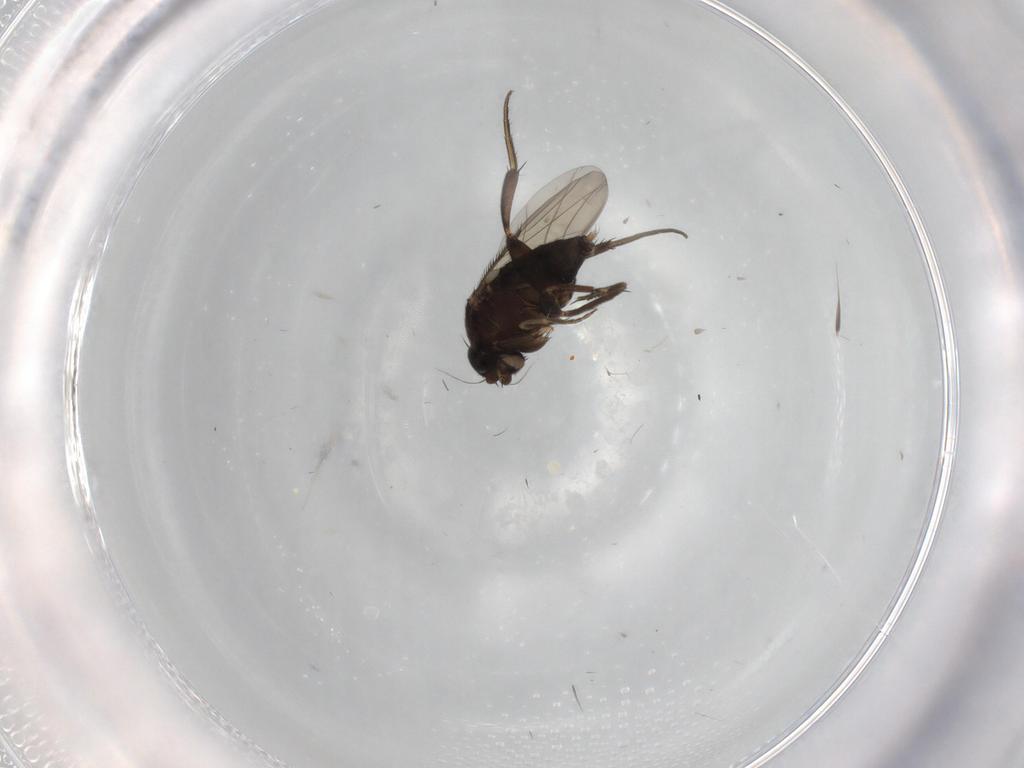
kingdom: Animalia
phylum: Arthropoda
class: Insecta
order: Diptera
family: Phoridae
